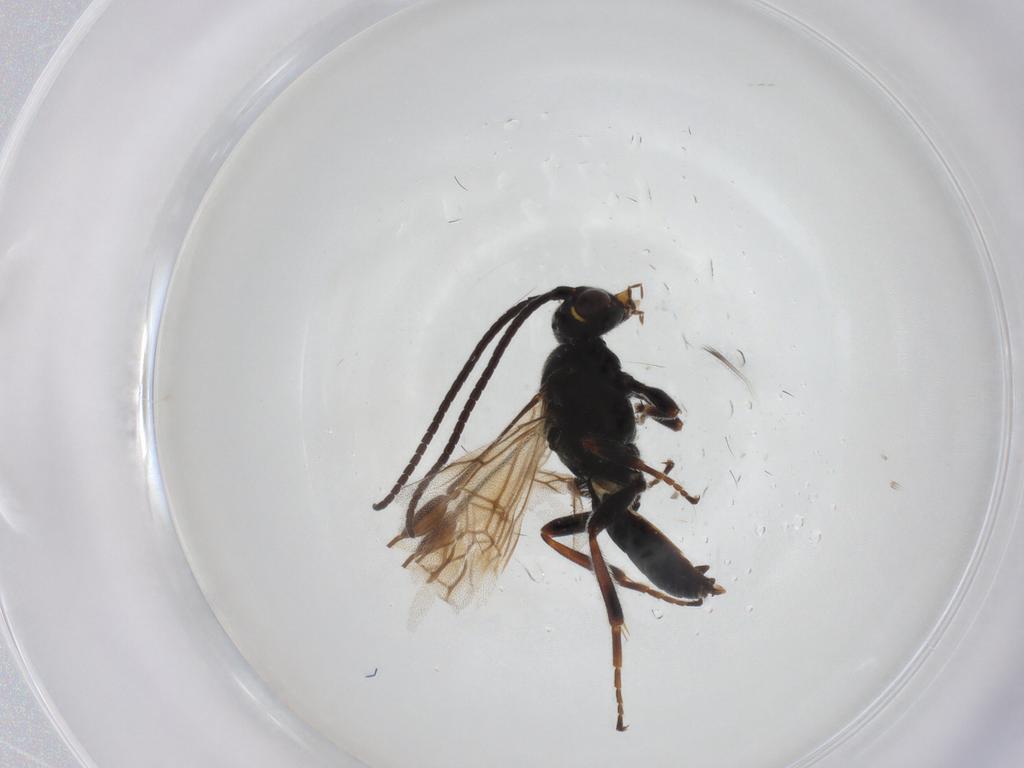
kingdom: Animalia
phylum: Arthropoda
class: Insecta
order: Hymenoptera
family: Braconidae
